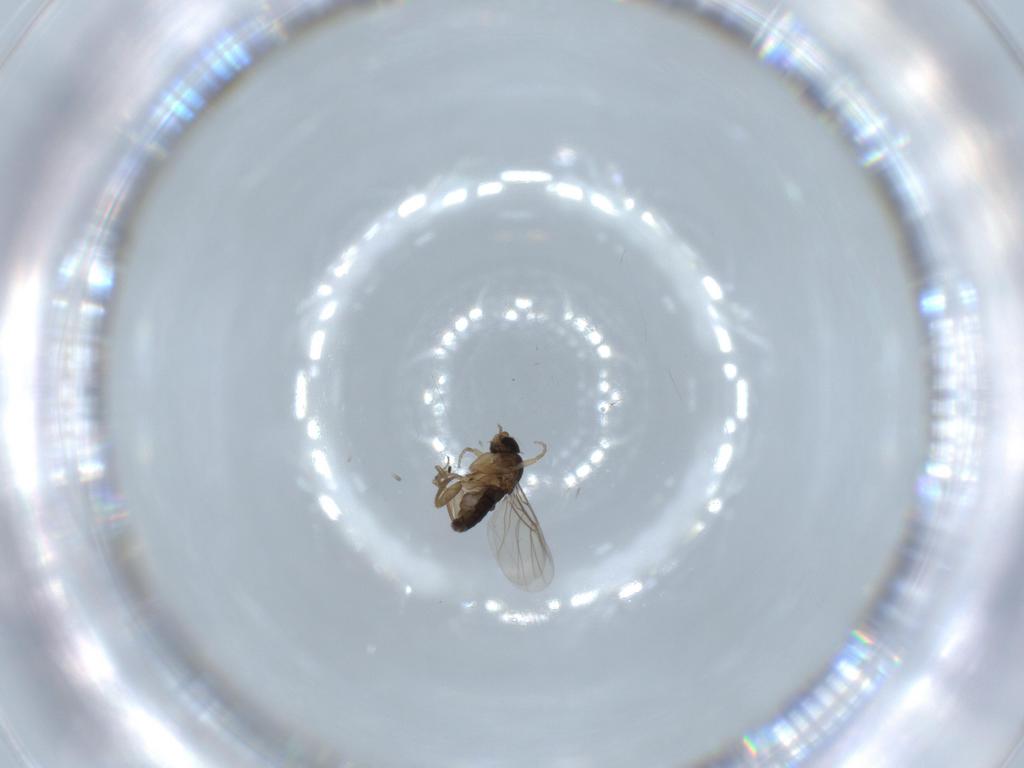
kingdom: Animalia
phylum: Arthropoda
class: Insecta
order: Diptera
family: Phoridae
